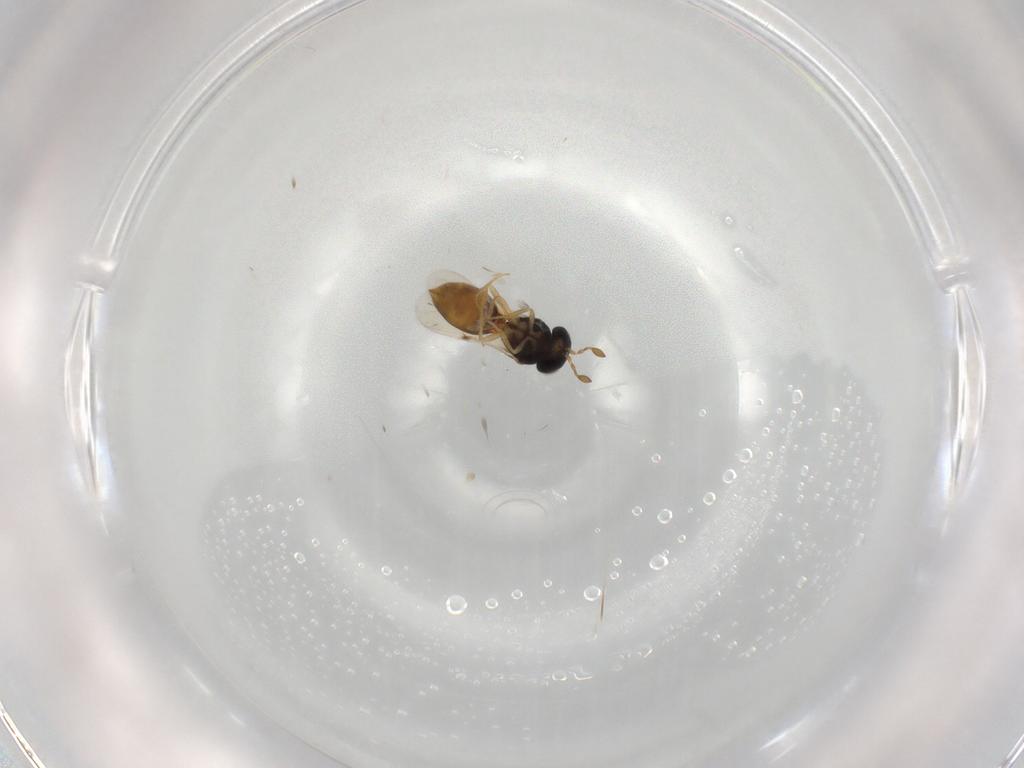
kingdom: Animalia
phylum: Arthropoda
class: Insecta
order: Hymenoptera
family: Scelionidae
